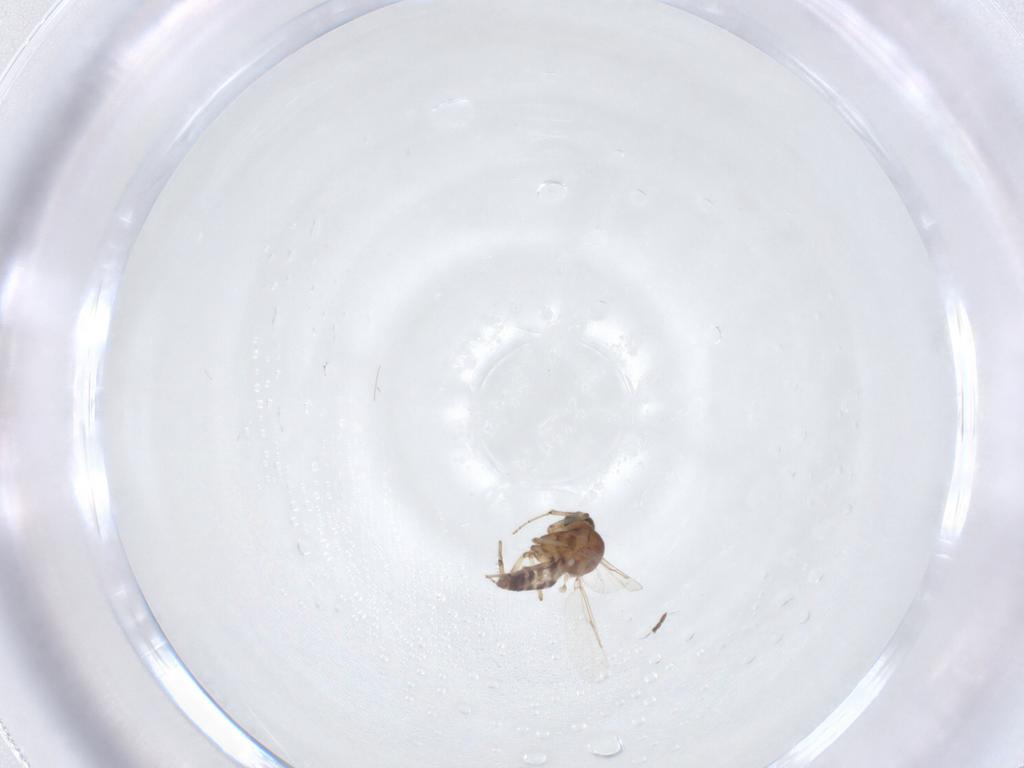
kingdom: Animalia
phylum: Arthropoda
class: Insecta
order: Diptera
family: Ceratopogonidae
